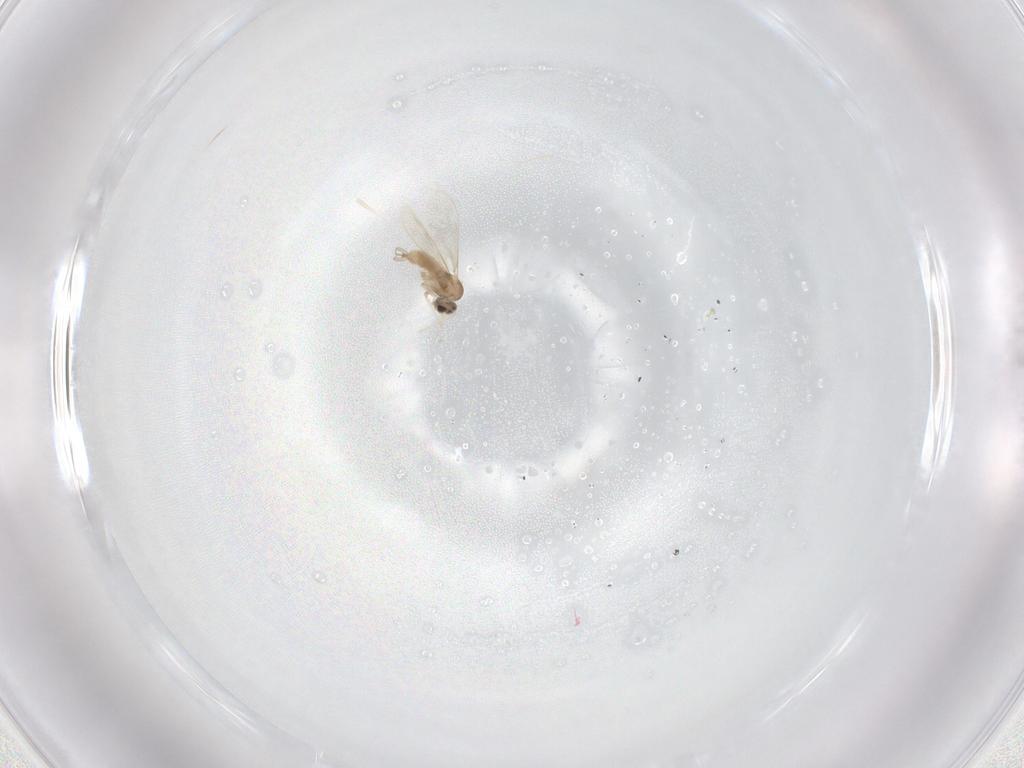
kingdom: Animalia
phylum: Arthropoda
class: Insecta
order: Diptera
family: Cecidomyiidae
